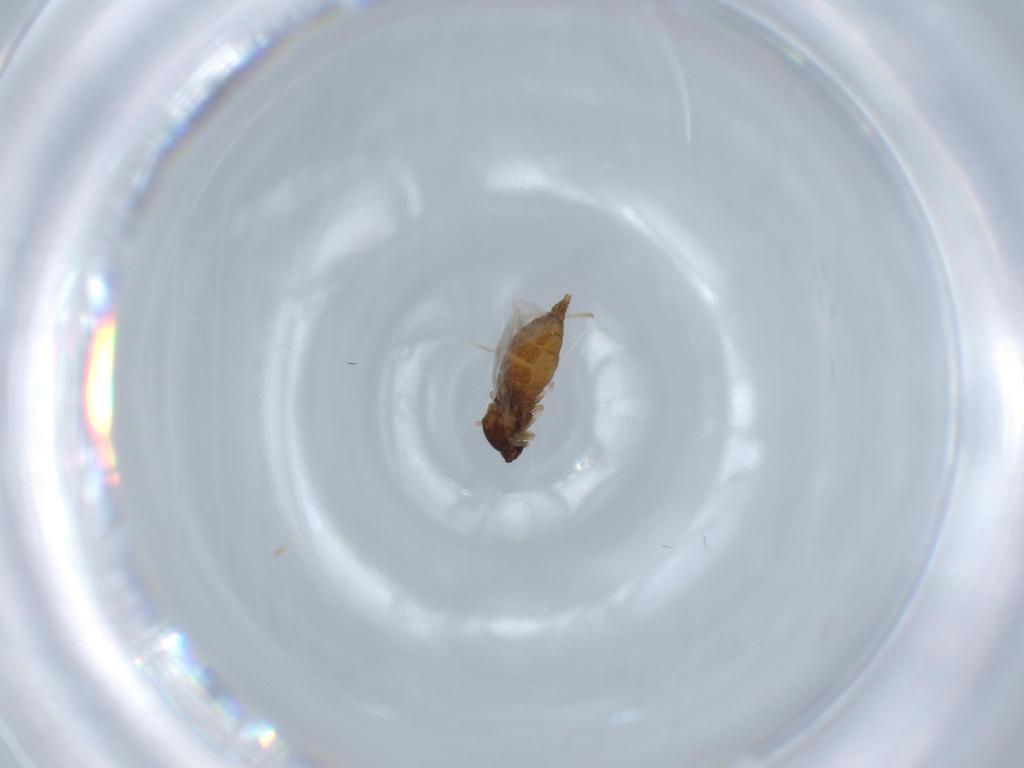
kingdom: Animalia
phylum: Arthropoda
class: Insecta
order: Diptera
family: Cecidomyiidae
